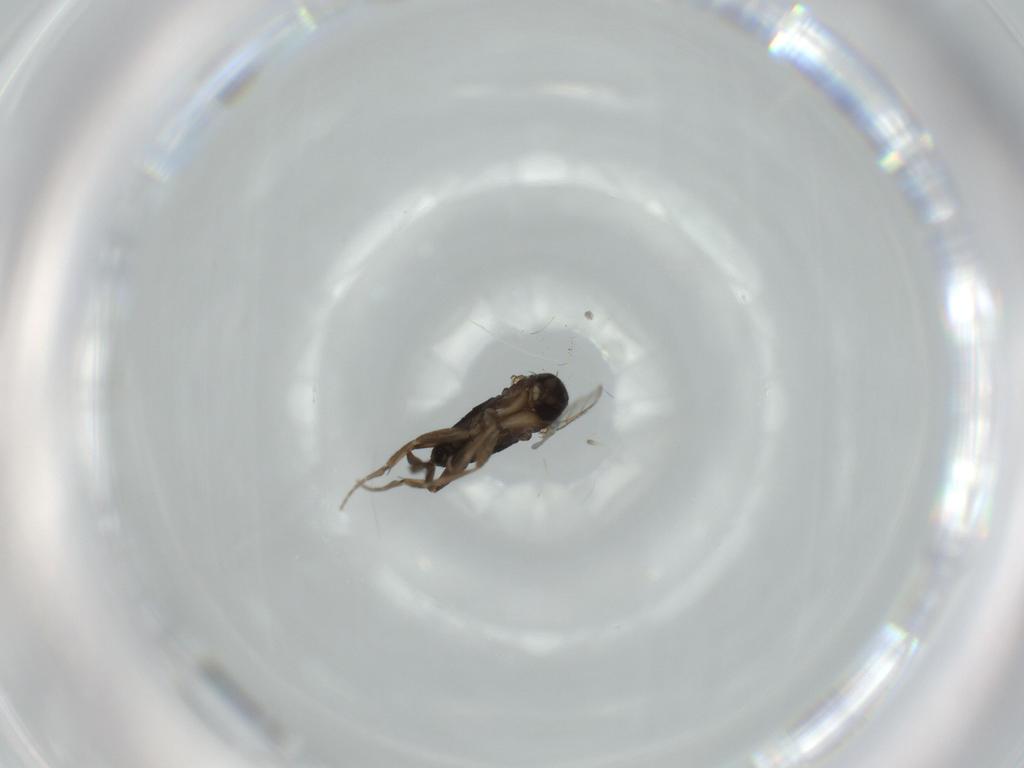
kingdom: Animalia
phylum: Arthropoda
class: Insecta
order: Diptera
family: Phoridae
